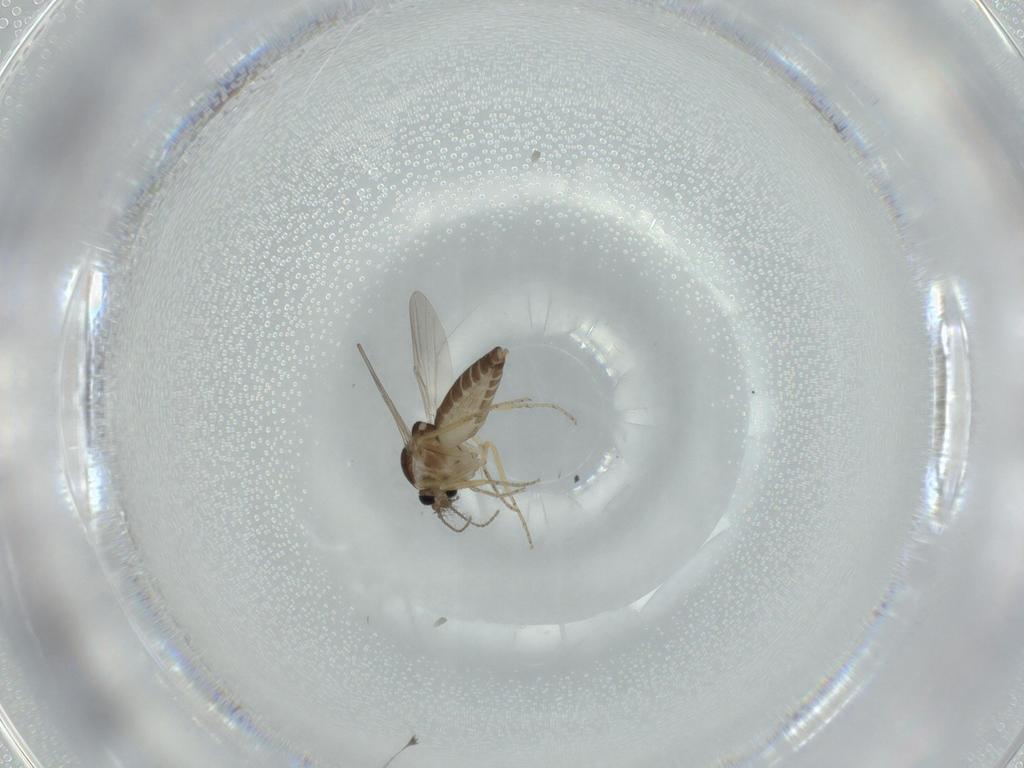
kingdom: Animalia
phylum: Arthropoda
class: Insecta
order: Diptera
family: Ceratopogonidae
